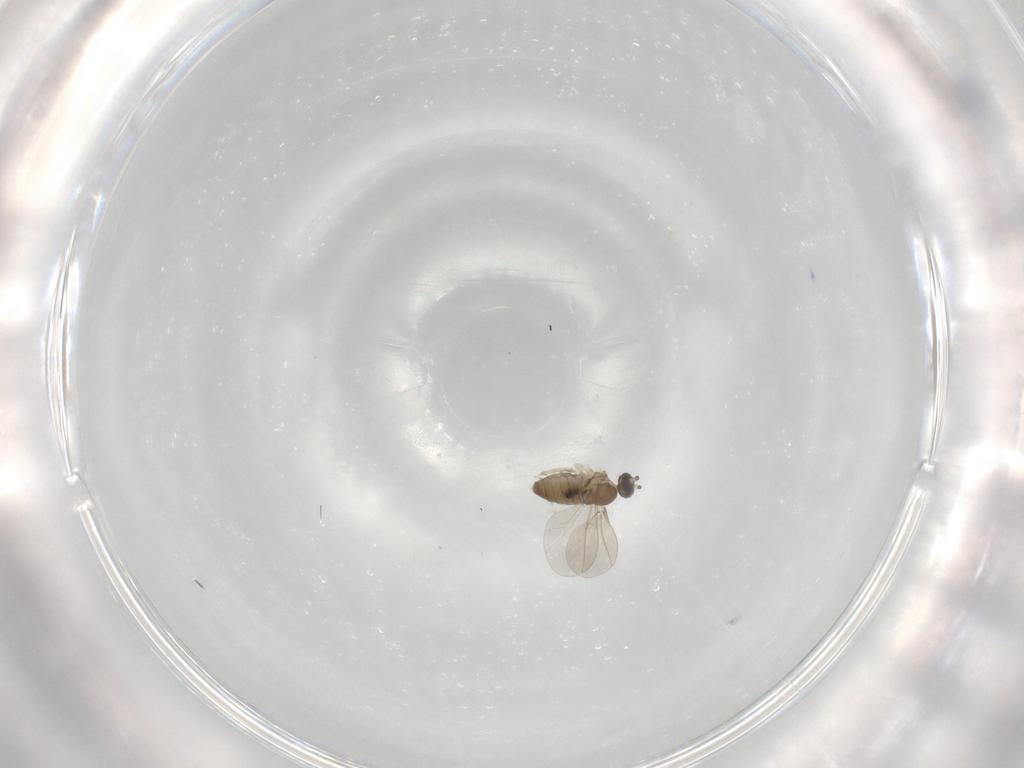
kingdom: Animalia
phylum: Arthropoda
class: Insecta
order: Diptera
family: Cecidomyiidae
